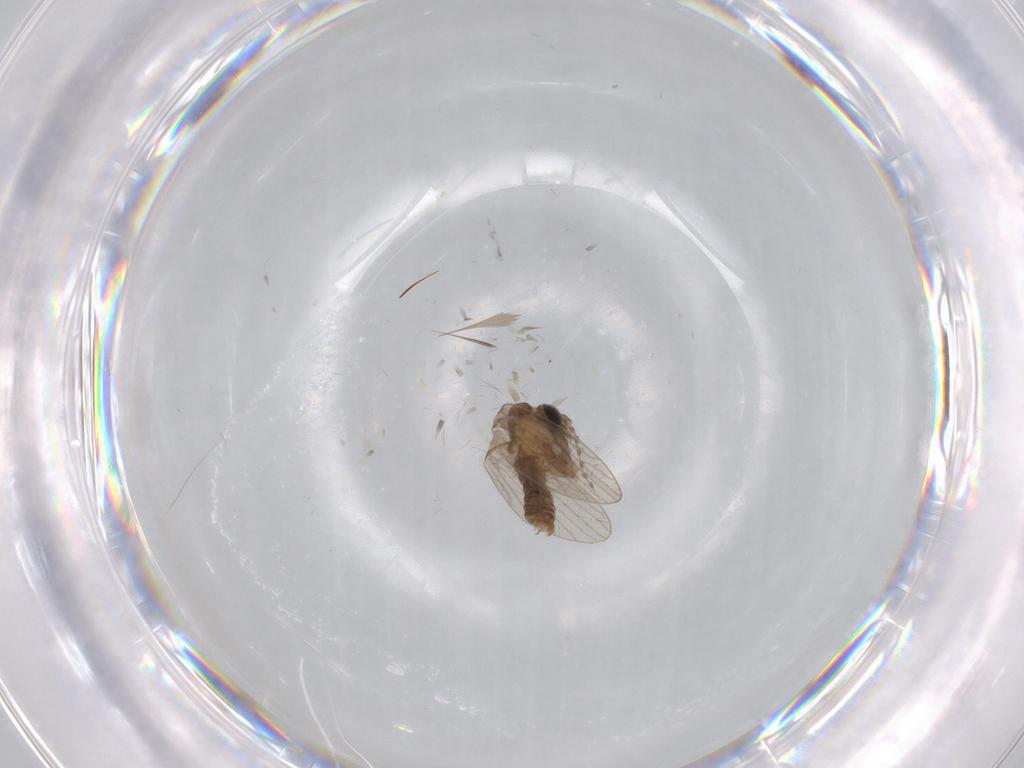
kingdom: Animalia
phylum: Arthropoda
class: Insecta
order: Diptera
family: Psychodidae
